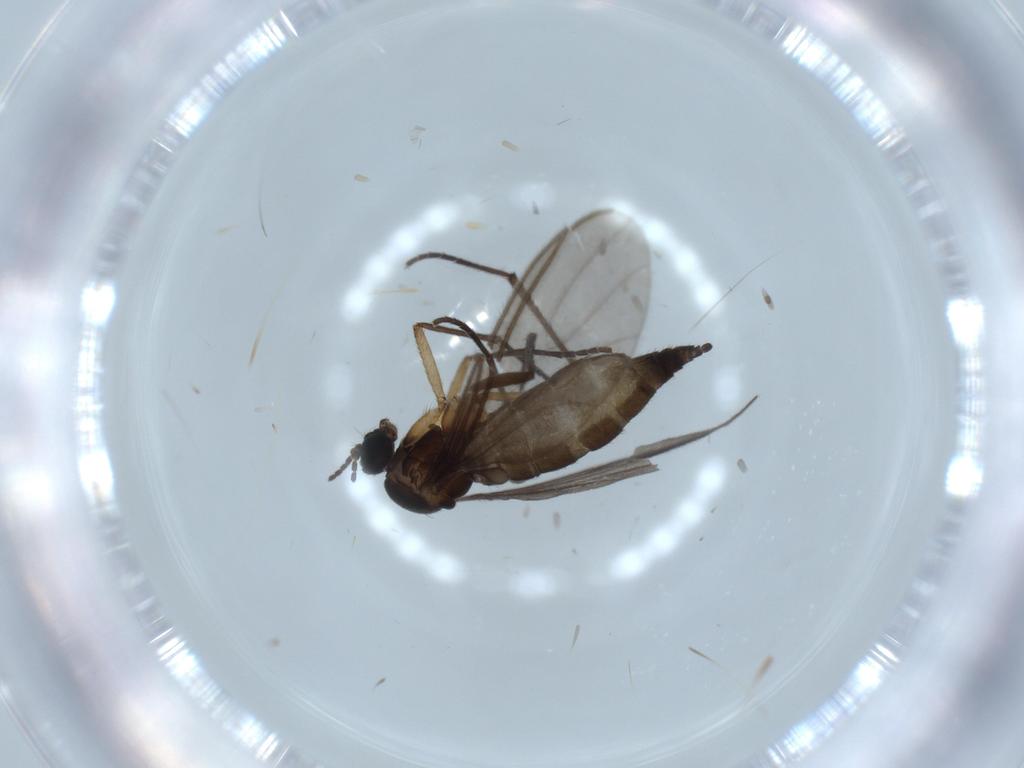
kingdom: Animalia
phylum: Arthropoda
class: Insecta
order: Diptera
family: Sciaridae
